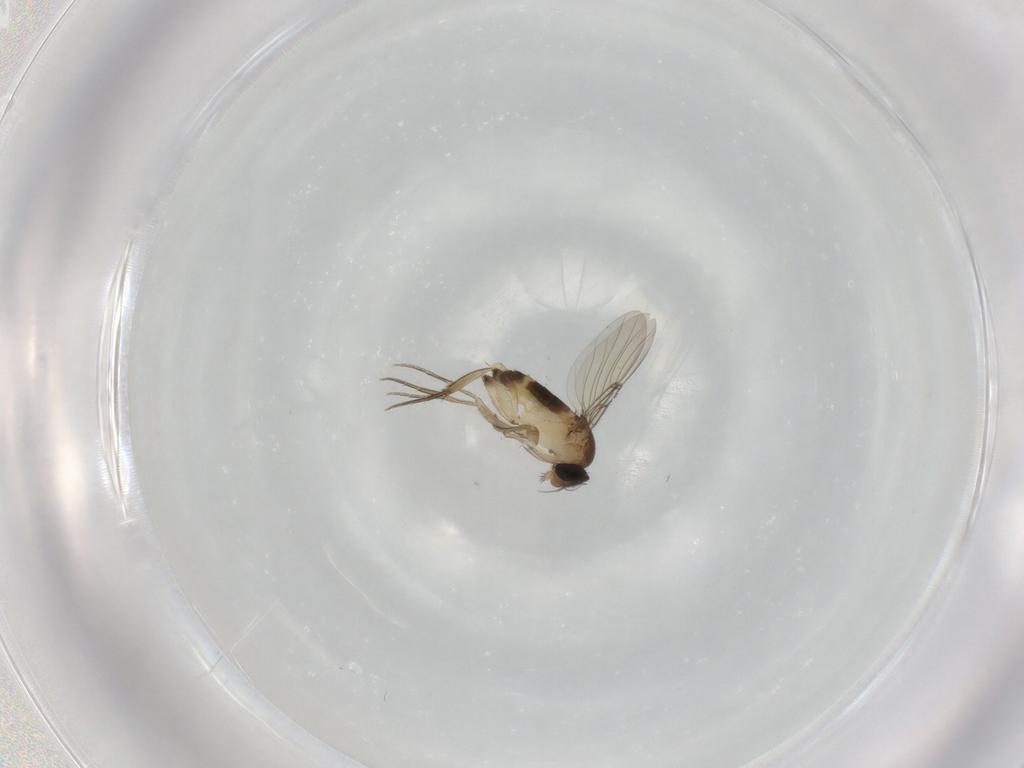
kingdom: Animalia
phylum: Arthropoda
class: Insecta
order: Diptera
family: Phoridae
